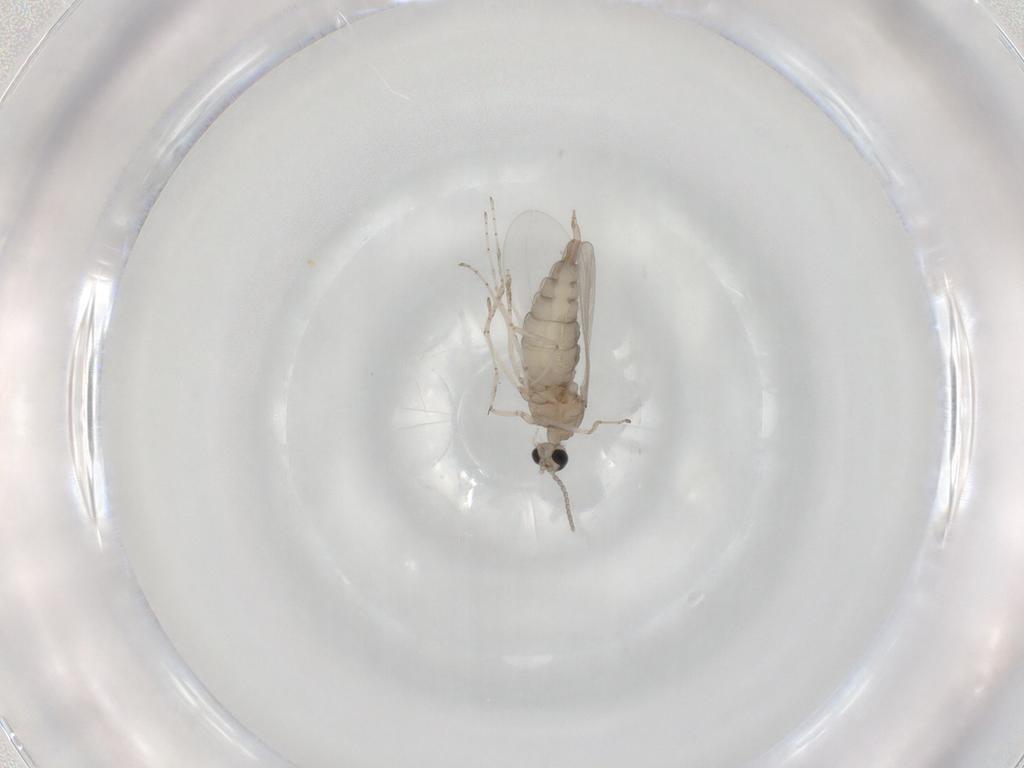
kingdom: Animalia
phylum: Arthropoda
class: Insecta
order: Diptera
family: Cecidomyiidae
